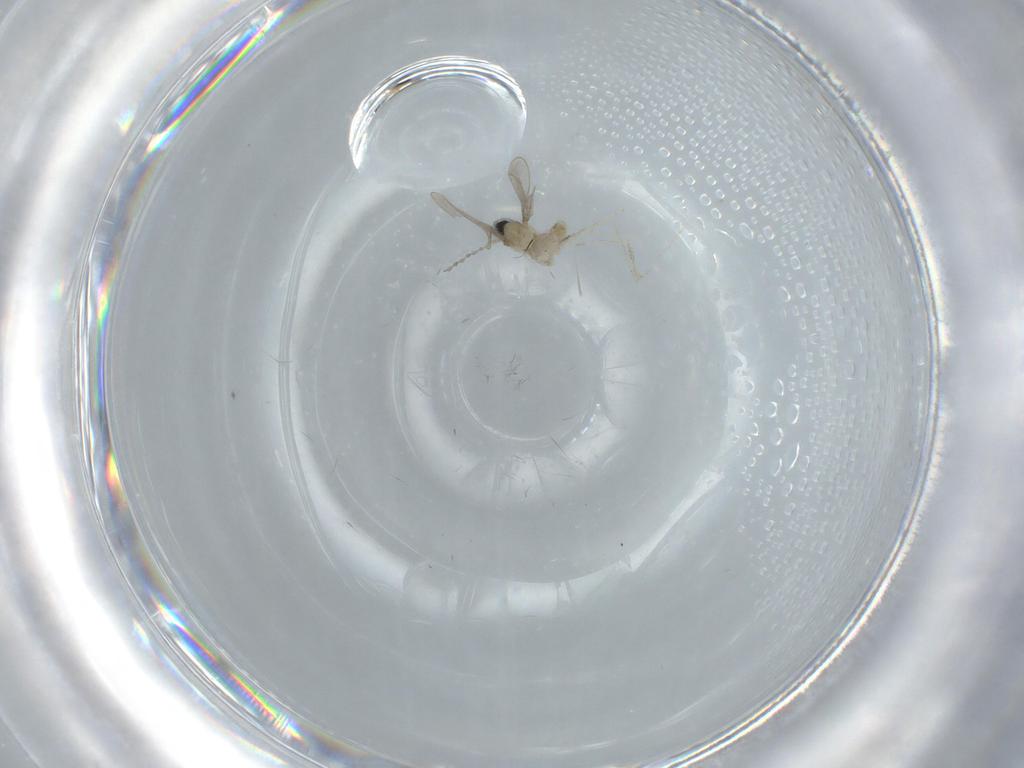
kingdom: Animalia
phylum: Arthropoda
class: Insecta
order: Diptera
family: Cecidomyiidae
